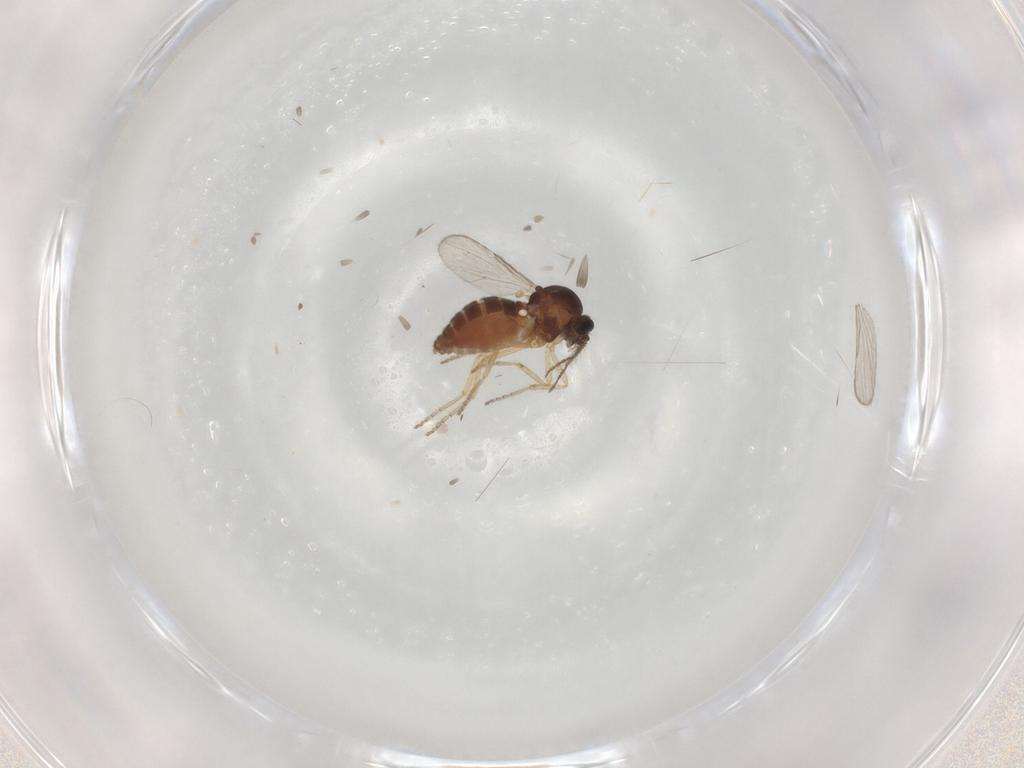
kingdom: Animalia
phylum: Arthropoda
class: Insecta
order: Diptera
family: Ceratopogonidae
